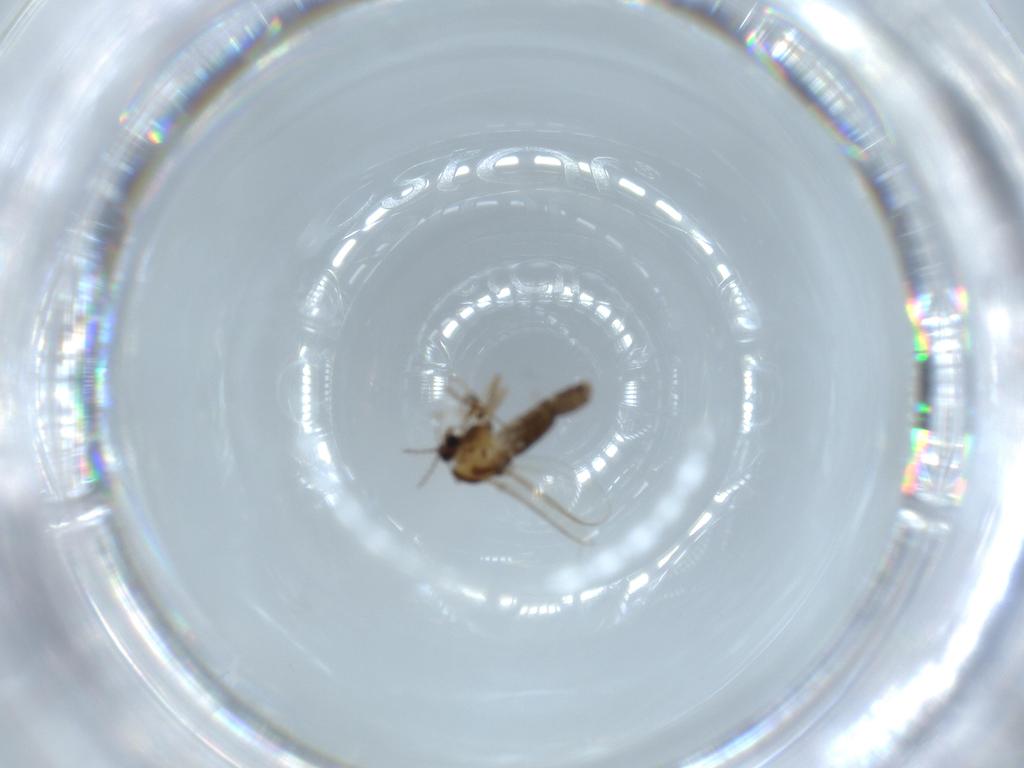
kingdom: Animalia
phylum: Arthropoda
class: Insecta
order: Diptera
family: Chironomidae
